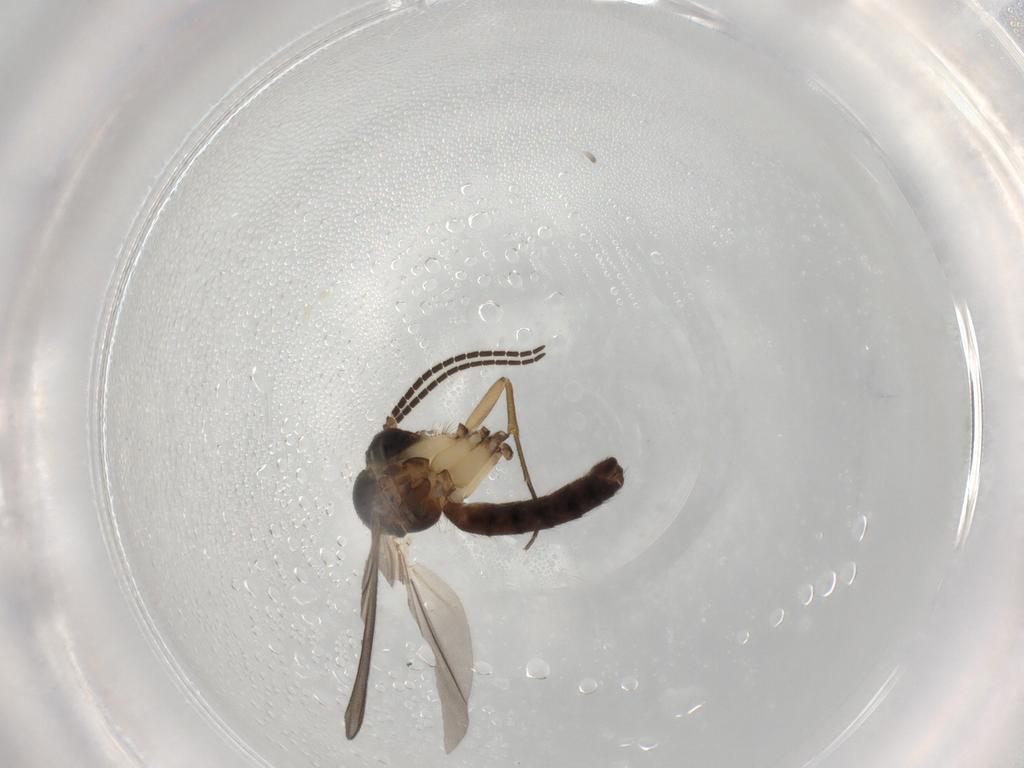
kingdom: Animalia
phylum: Arthropoda
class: Insecta
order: Diptera
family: Mycetophilidae
